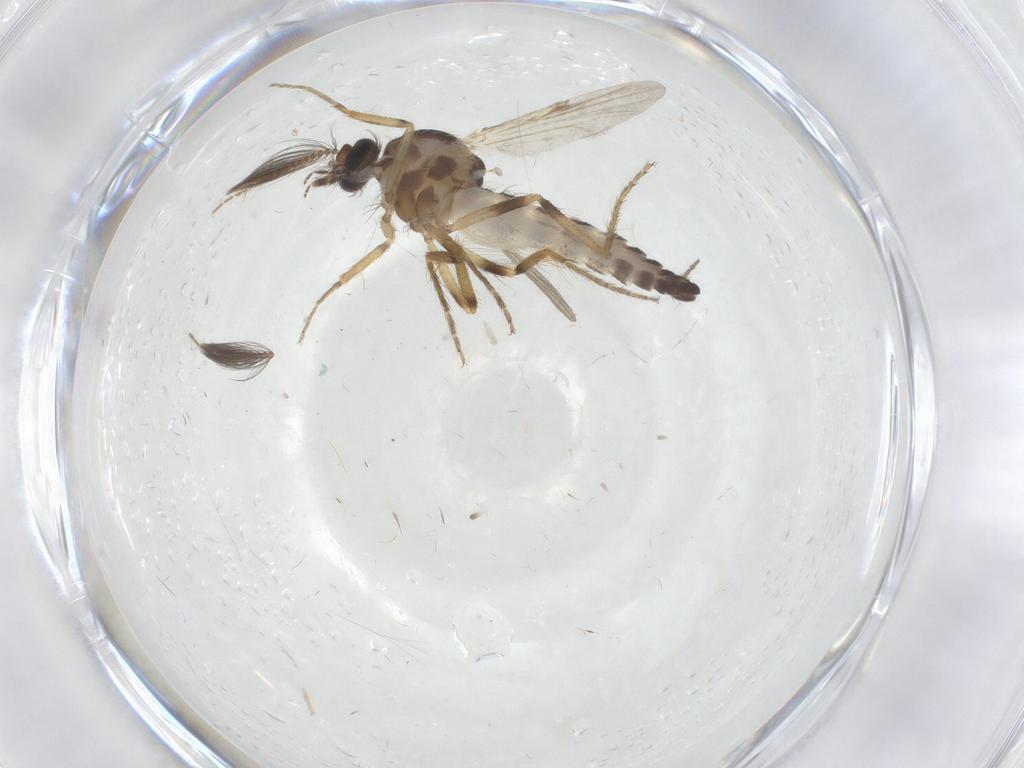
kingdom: Animalia
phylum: Arthropoda
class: Insecta
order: Diptera
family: Ceratopogonidae
